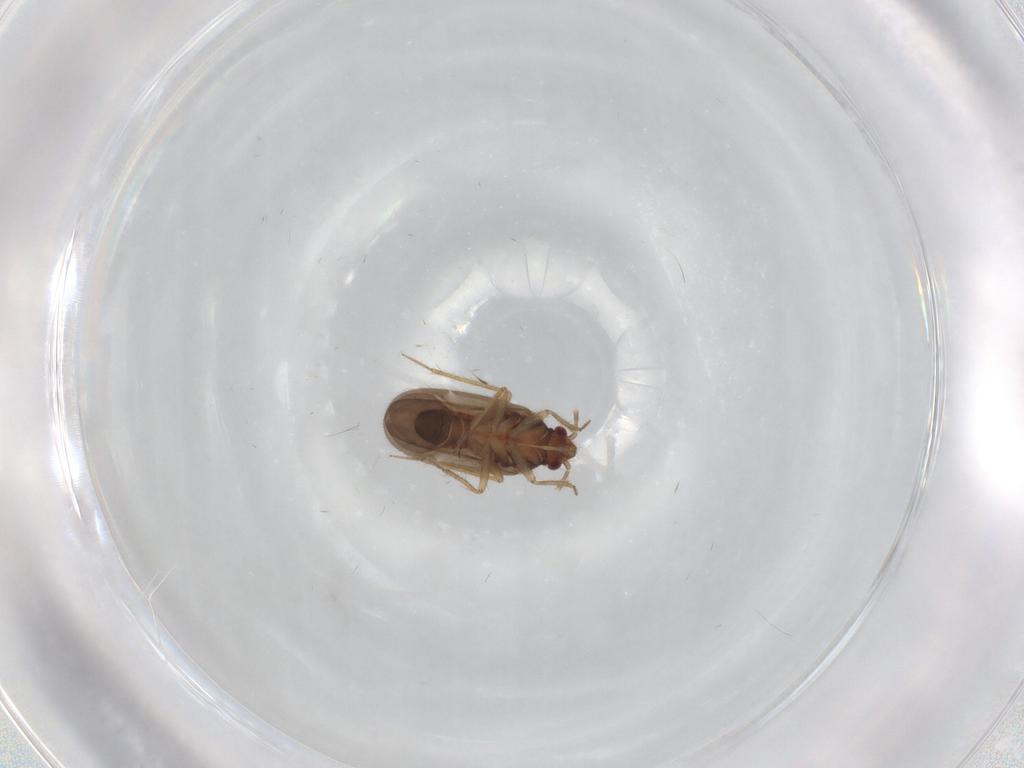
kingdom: Animalia
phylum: Arthropoda
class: Insecta
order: Hemiptera
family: Ceratocombidae
